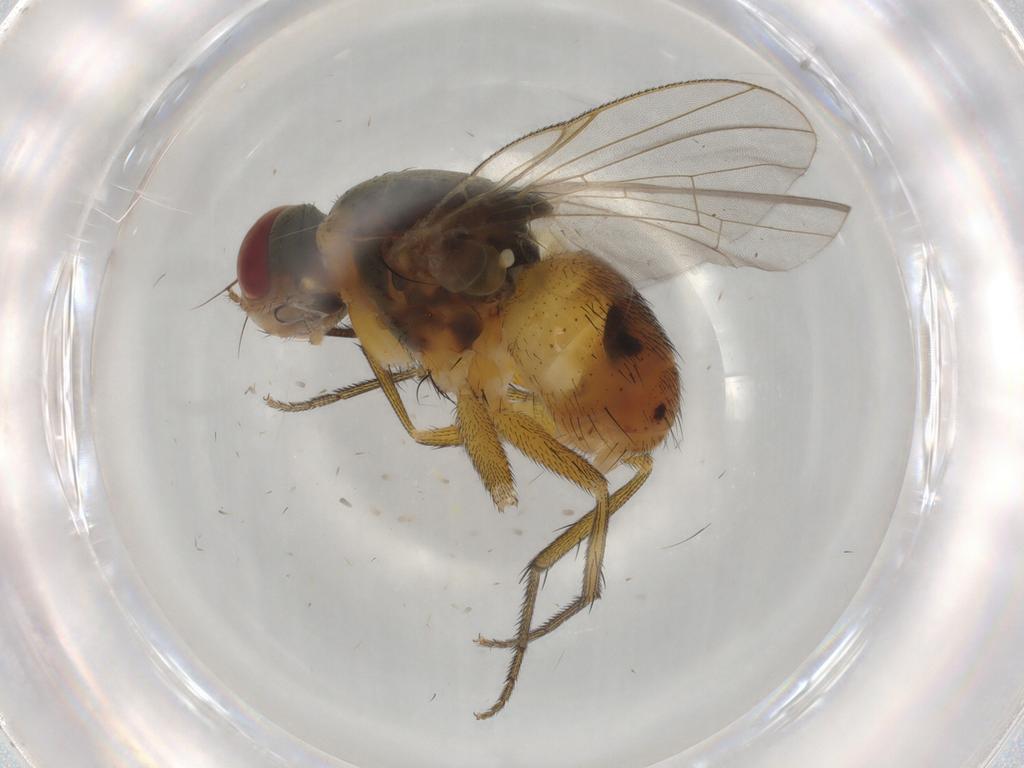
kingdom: Animalia
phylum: Arthropoda
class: Insecta
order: Diptera
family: Muscidae
